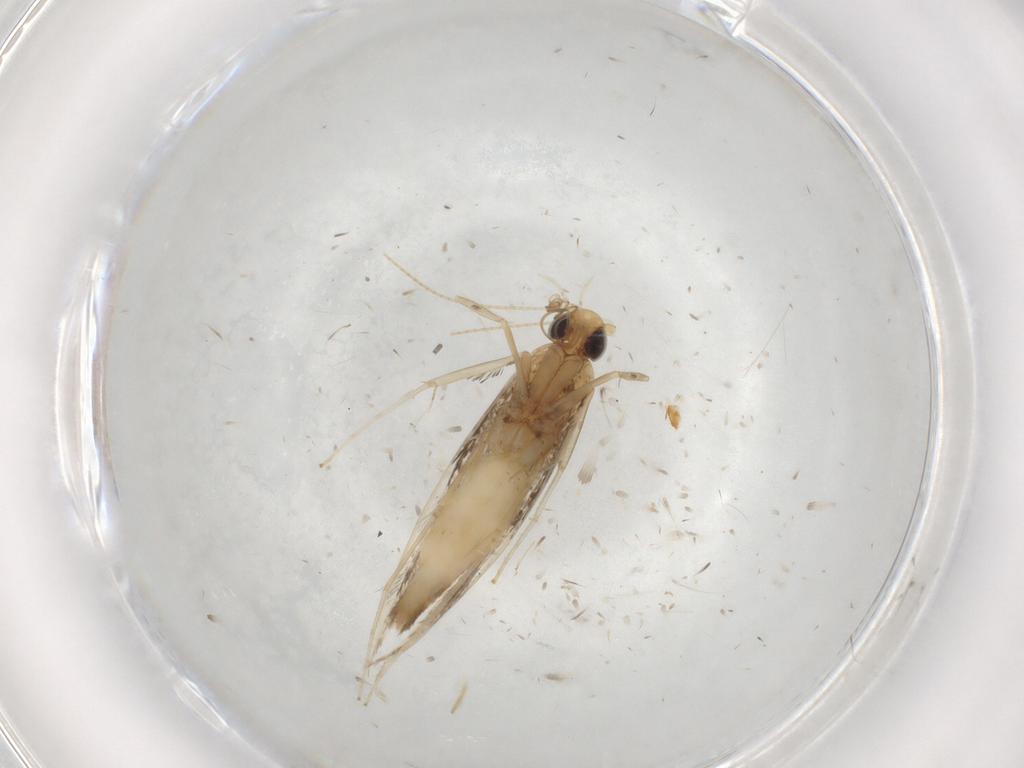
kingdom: Animalia
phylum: Arthropoda
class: Insecta
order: Lepidoptera
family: Gracillariidae
